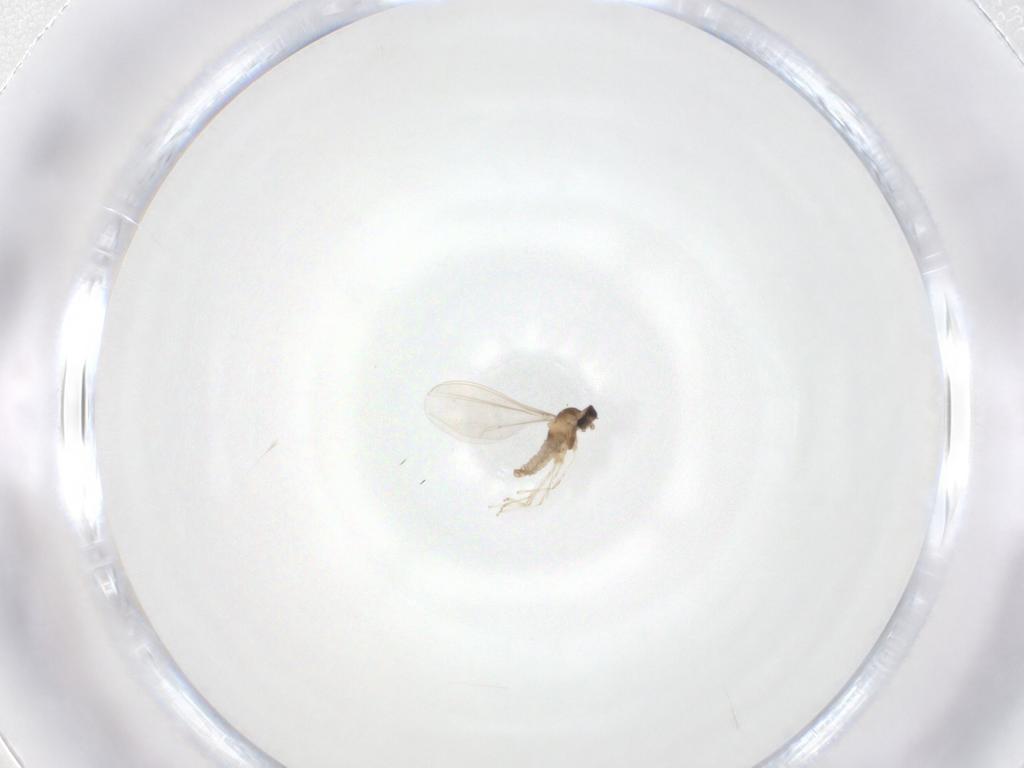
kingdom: Animalia
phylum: Arthropoda
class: Insecta
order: Diptera
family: Cecidomyiidae
